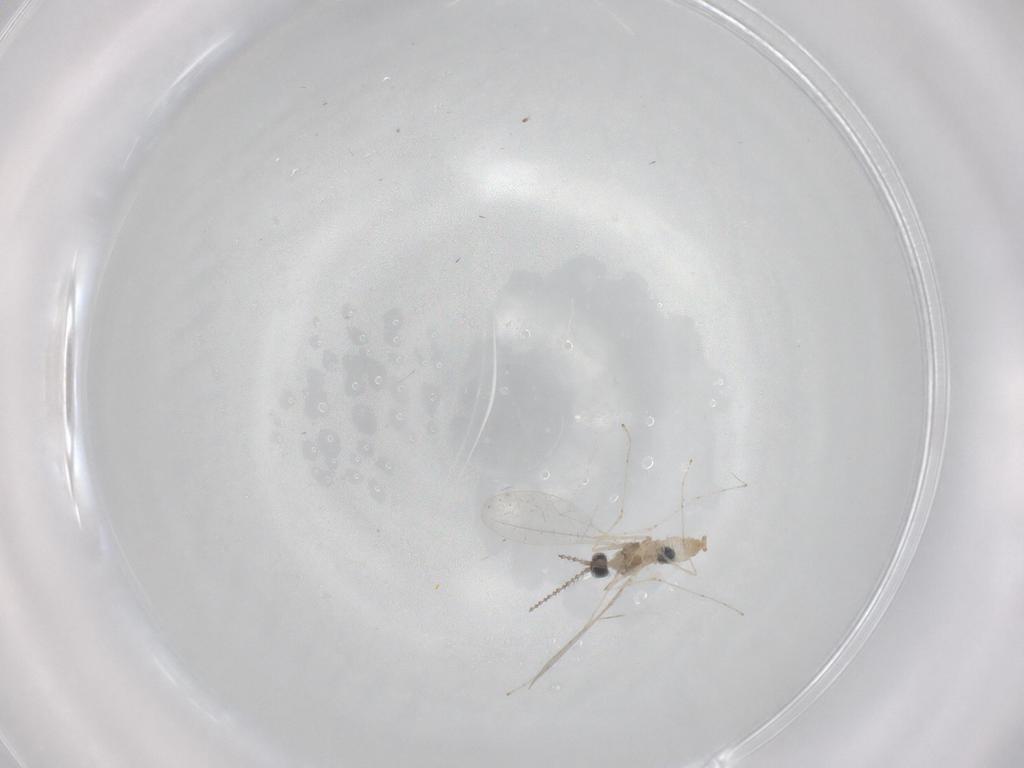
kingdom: Animalia
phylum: Arthropoda
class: Insecta
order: Diptera
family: Cecidomyiidae
